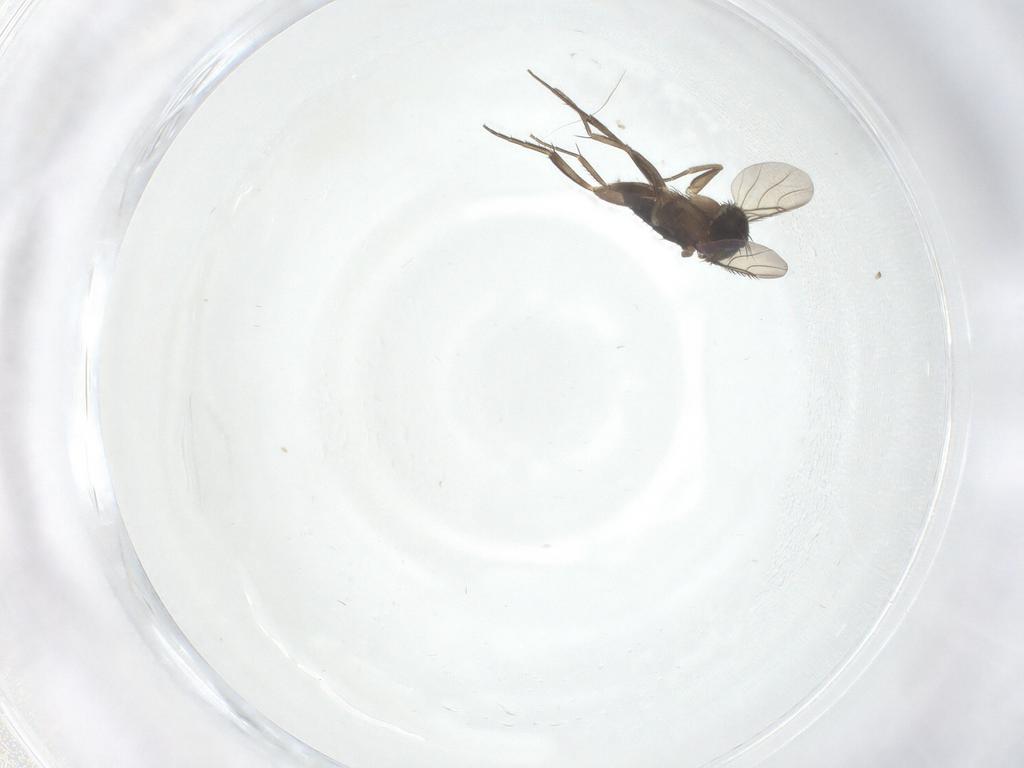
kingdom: Animalia
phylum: Arthropoda
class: Insecta
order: Diptera
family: Phoridae
